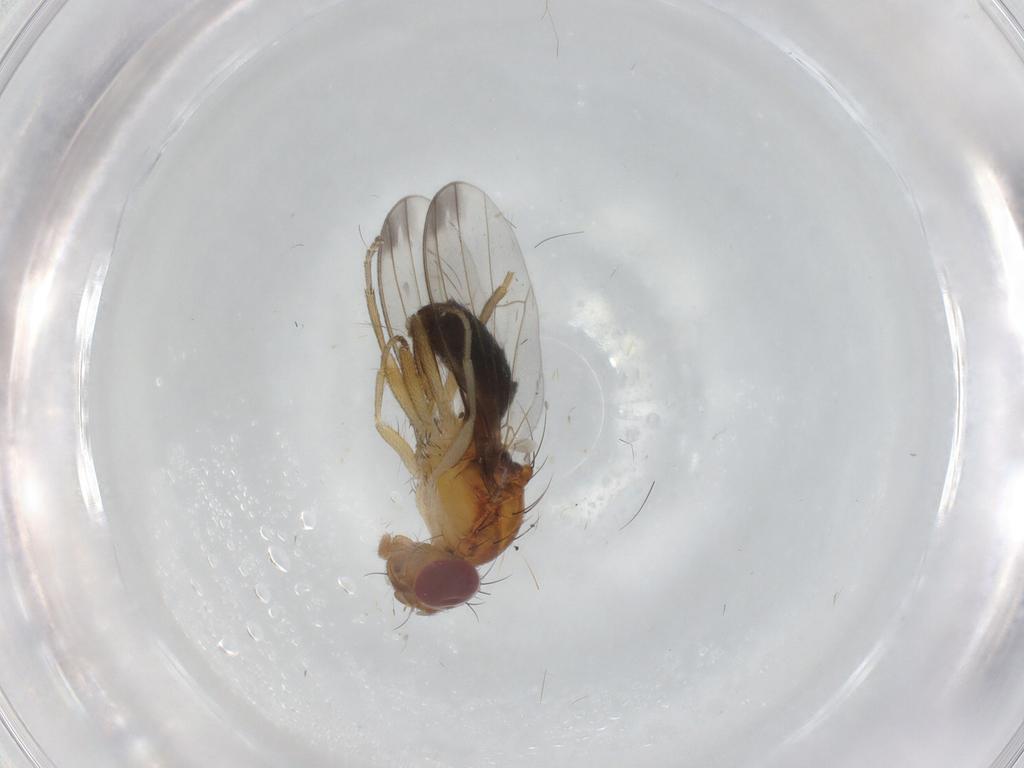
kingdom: Animalia
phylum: Arthropoda
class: Insecta
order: Diptera
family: Piophilidae
